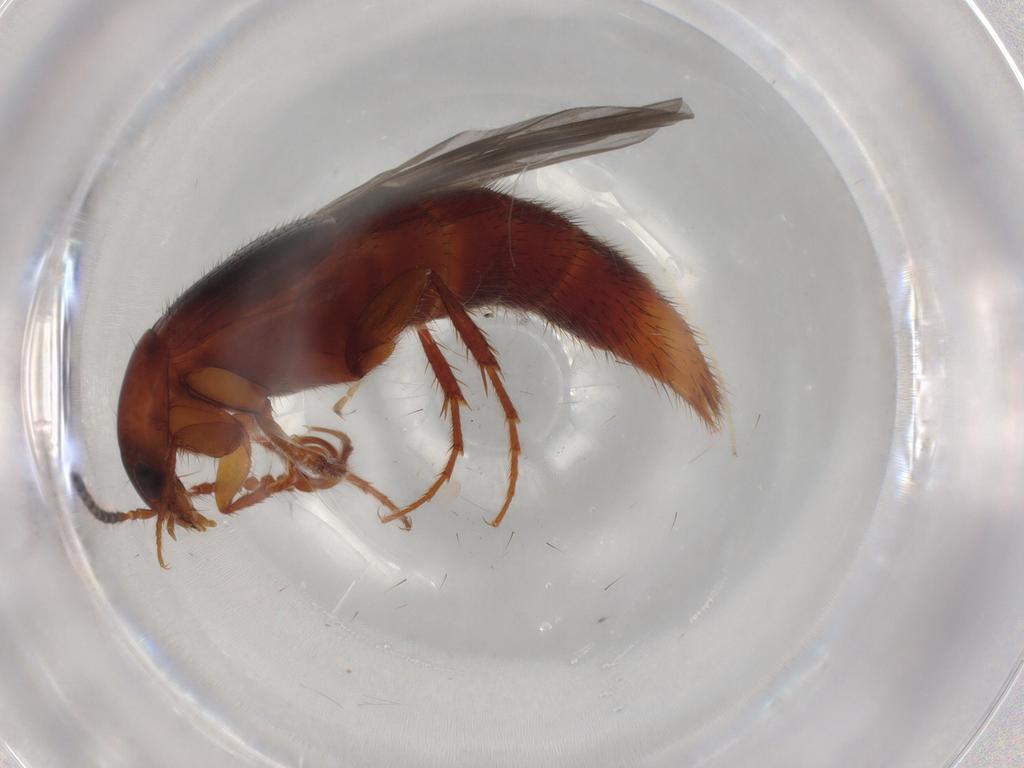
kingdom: Animalia
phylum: Arthropoda
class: Insecta
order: Coleoptera
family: Staphylinidae
